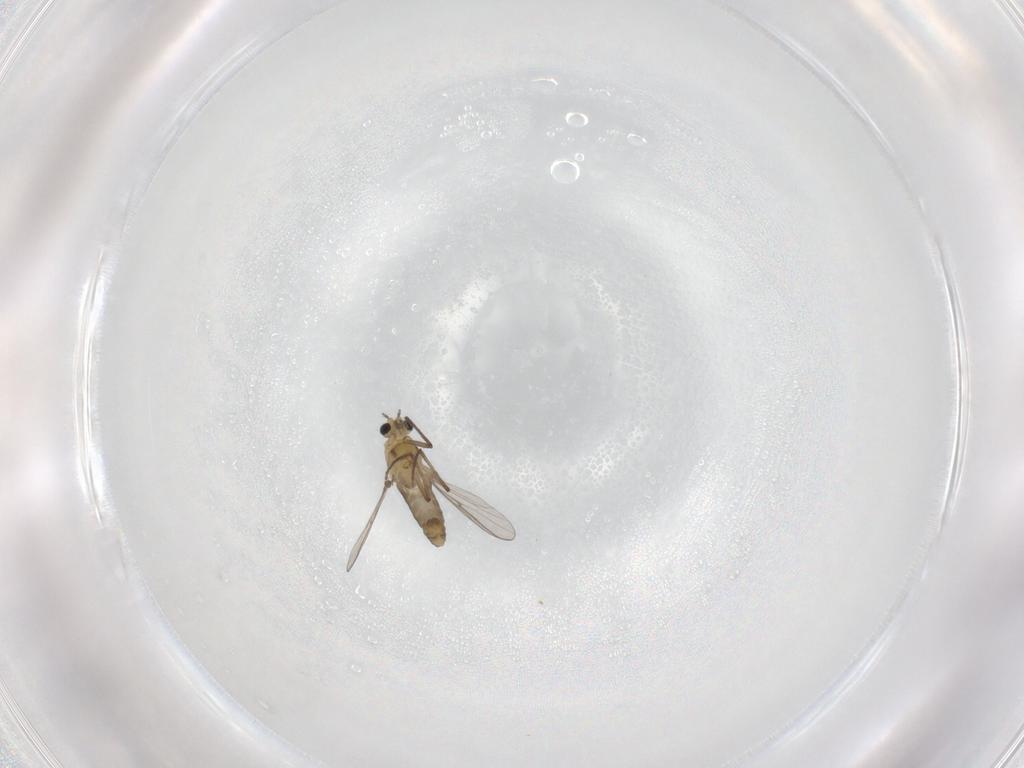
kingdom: Animalia
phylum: Arthropoda
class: Insecta
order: Diptera
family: Chironomidae
